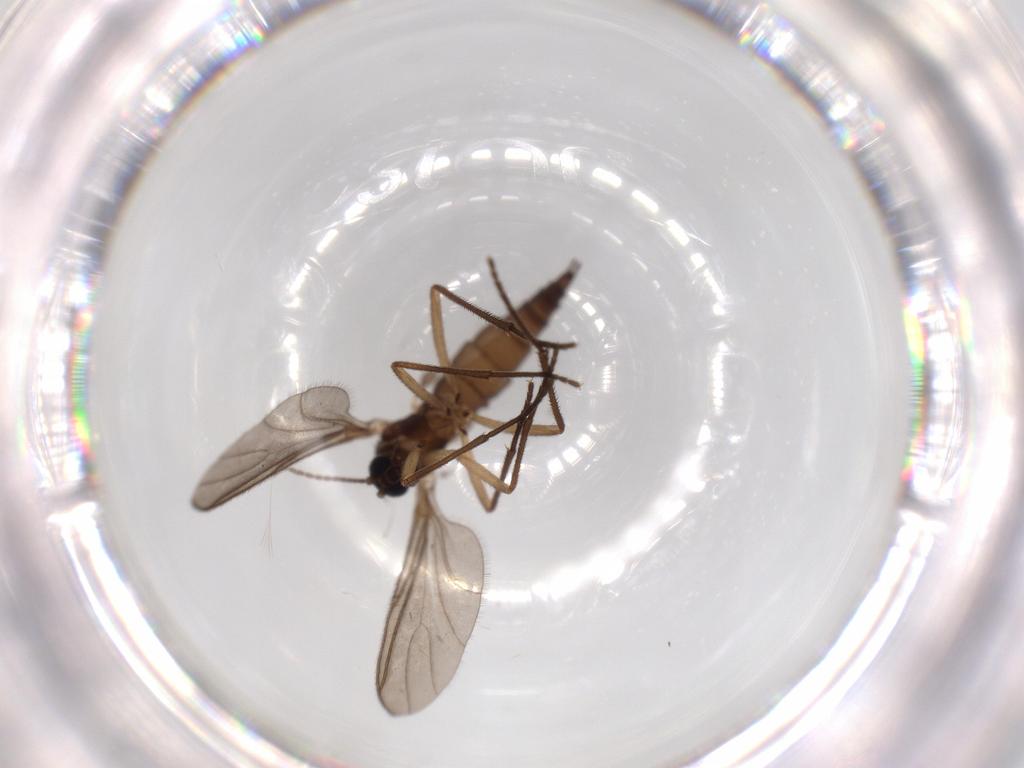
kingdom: Animalia
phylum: Arthropoda
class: Insecta
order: Diptera
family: Sciaridae
